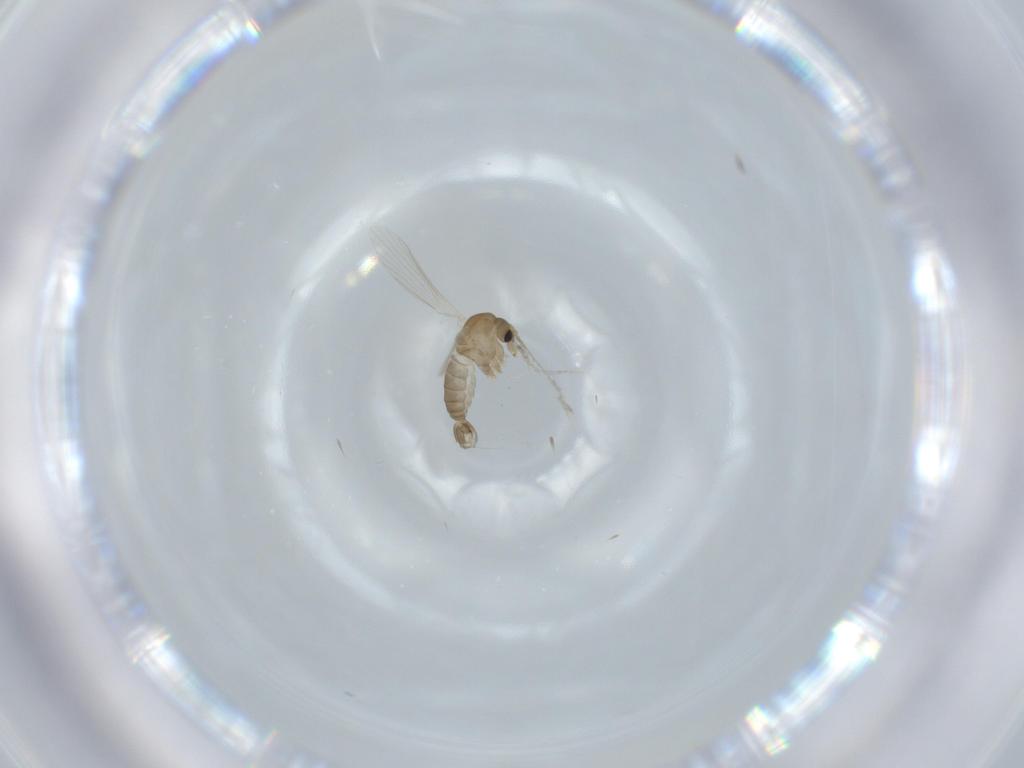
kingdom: Animalia
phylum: Arthropoda
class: Insecta
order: Diptera
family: Psychodidae
